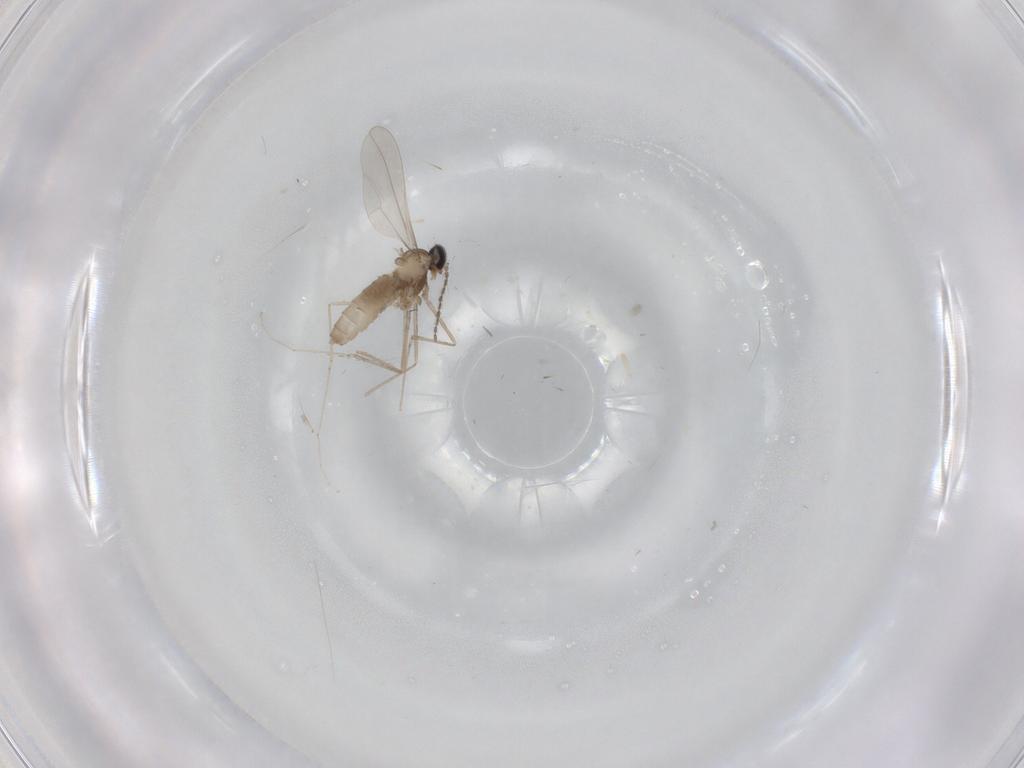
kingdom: Animalia
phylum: Arthropoda
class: Insecta
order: Diptera
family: Cecidomyiidae
